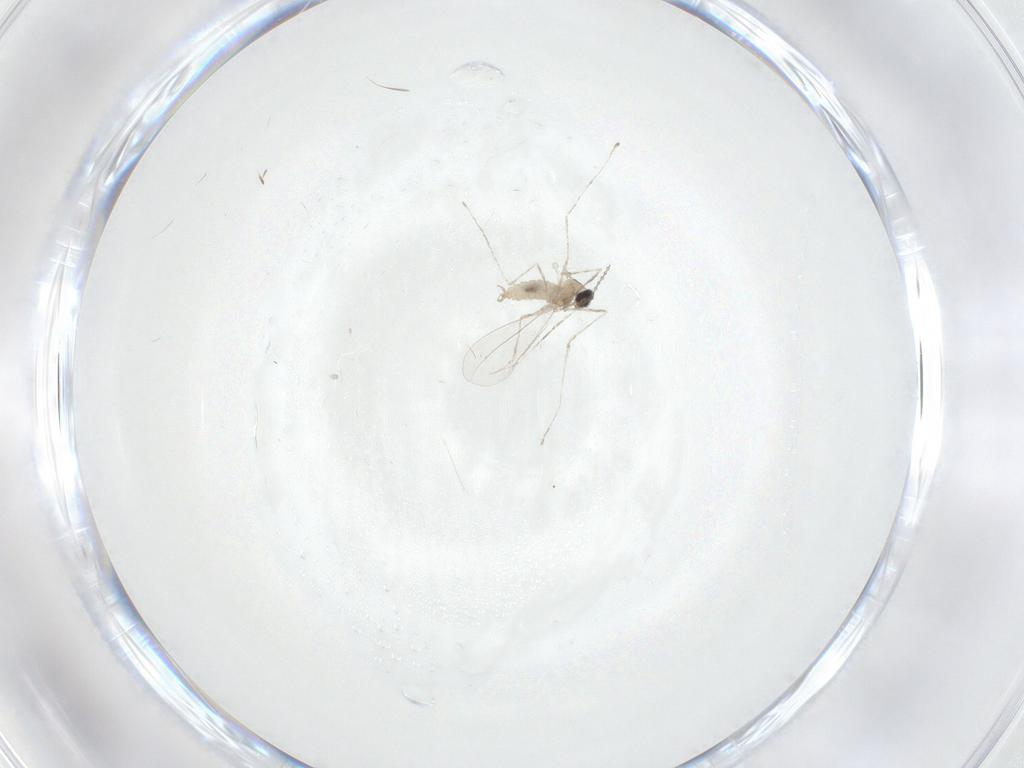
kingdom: Animalia
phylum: Arthropoda
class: Insecta
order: Diptera
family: Cecidomyiidae
